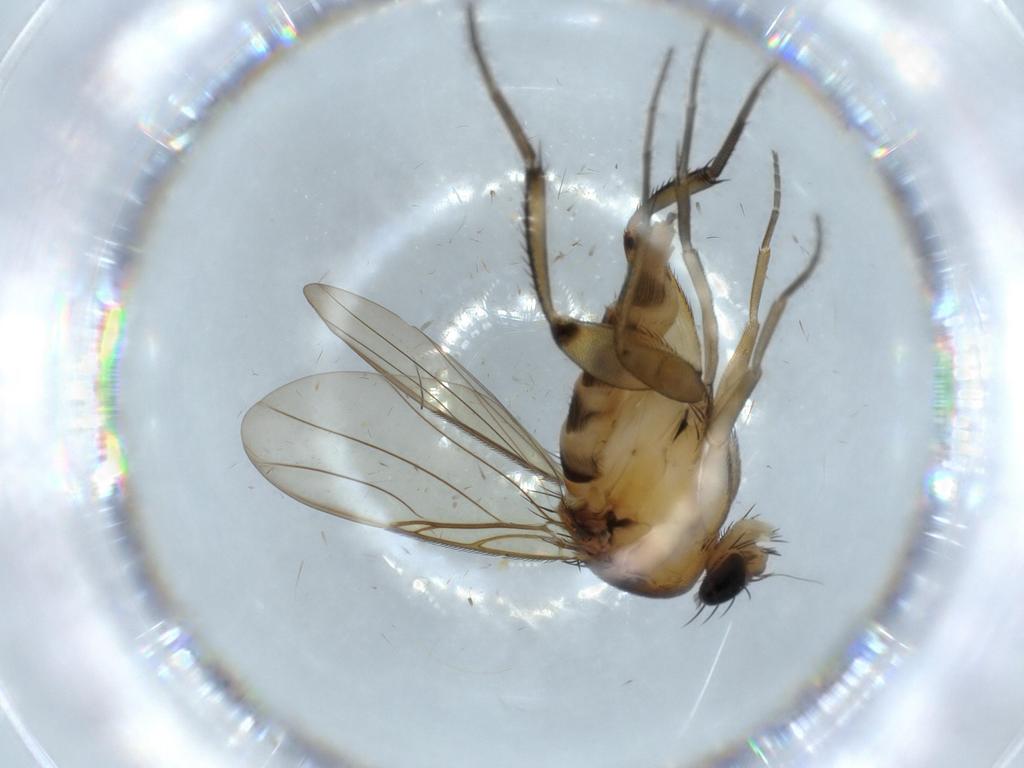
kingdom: Animalia
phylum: Arthropoda
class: Insecta
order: Diptera
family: Phoridae
